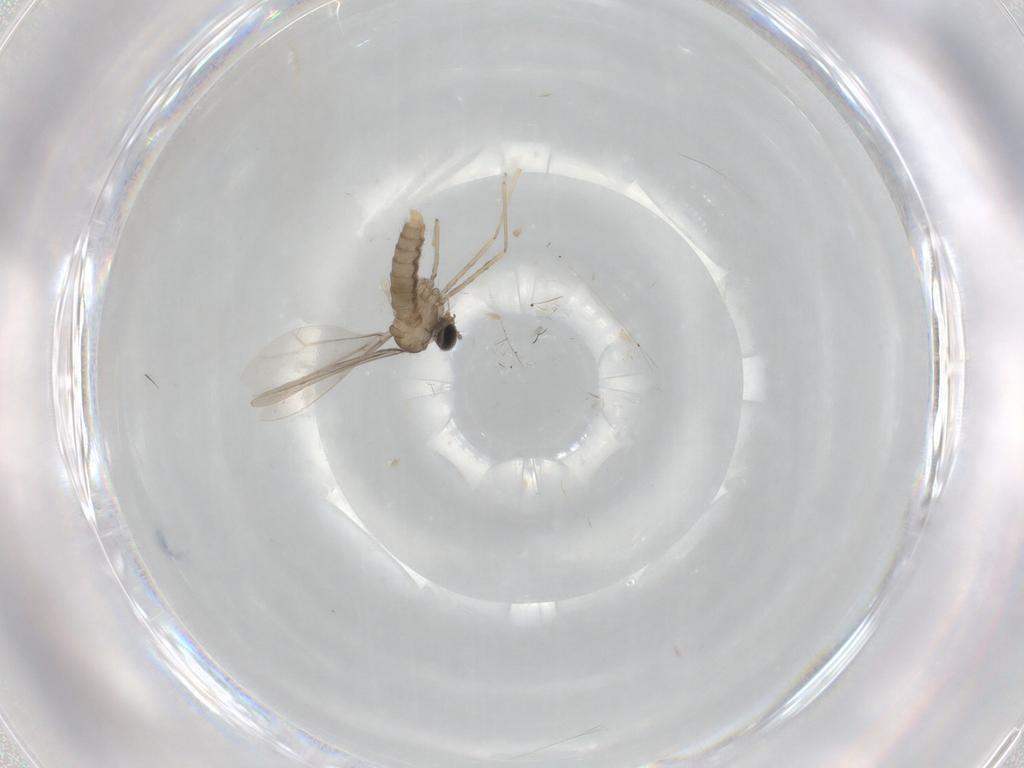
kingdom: Animalia
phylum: Arthropoda
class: Insecta
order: Diptera
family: Cecidomyiidae
